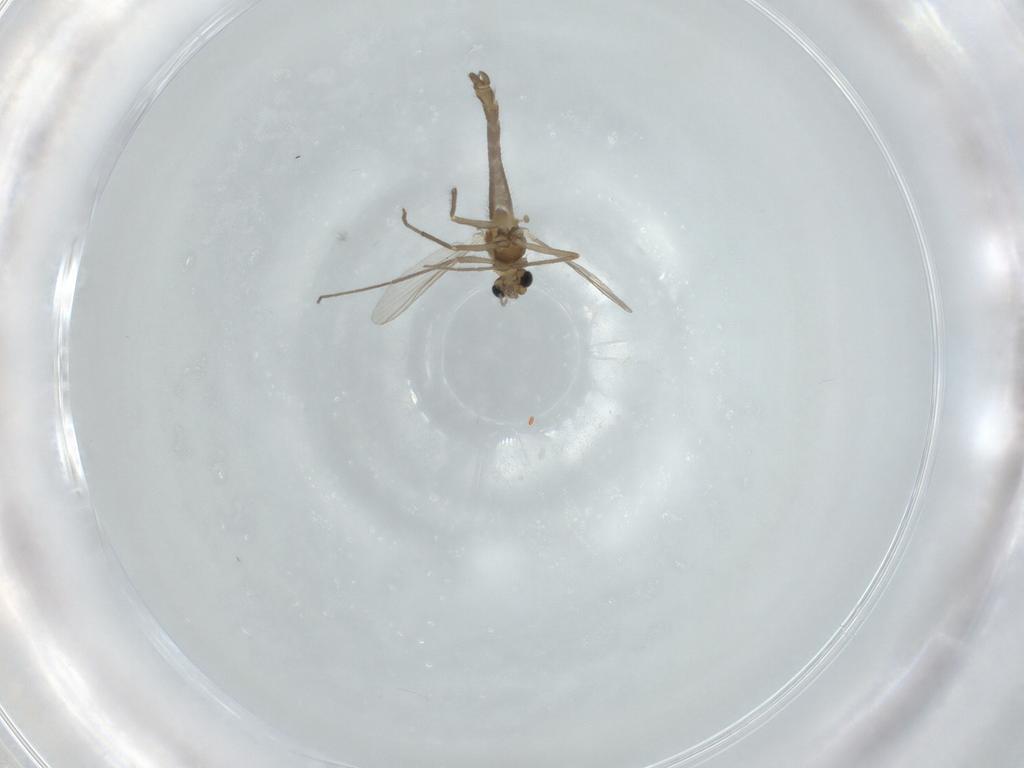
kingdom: Animalia
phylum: Arthropoda
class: Insecta
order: Diptera
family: Chironomidae
